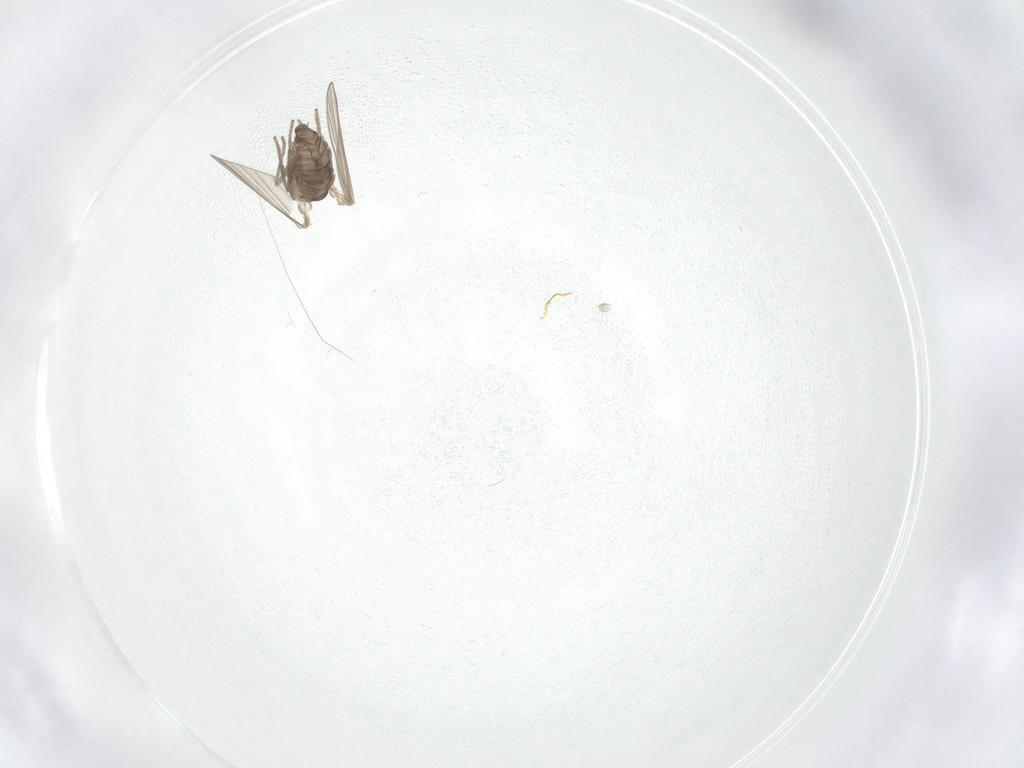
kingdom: Animalia
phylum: Arthropoda
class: Insecta
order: Diptera
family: Psychodidae
